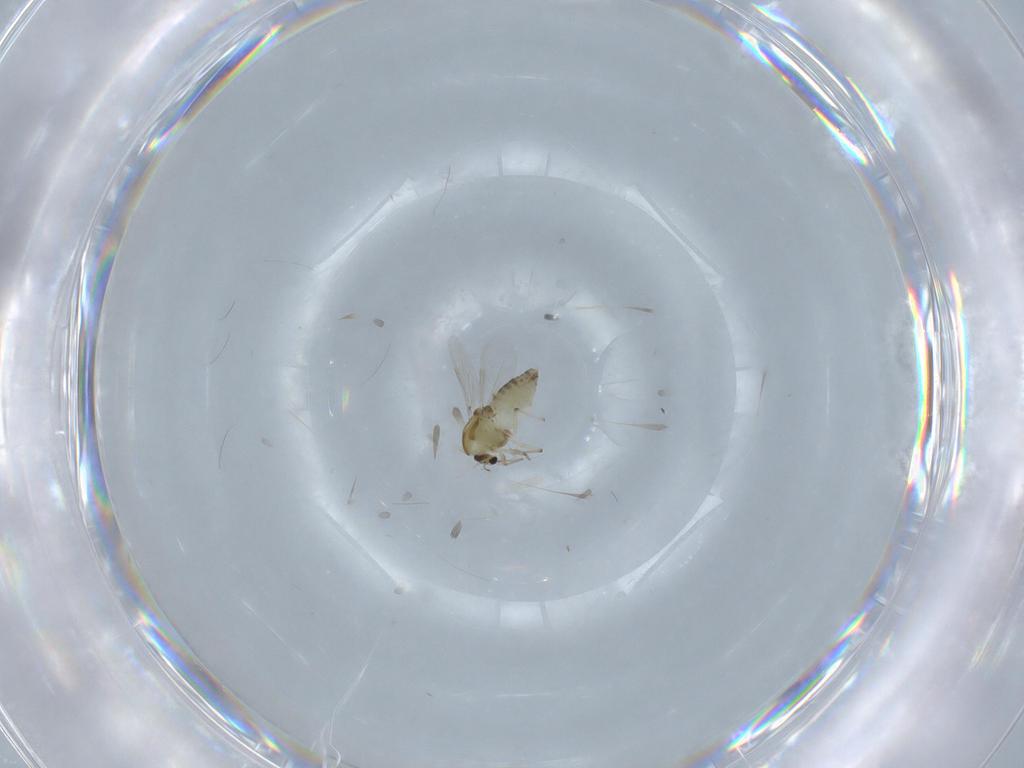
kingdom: Animalia
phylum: Arthropoda
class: Insecta
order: Diptera
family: Chironomidae
